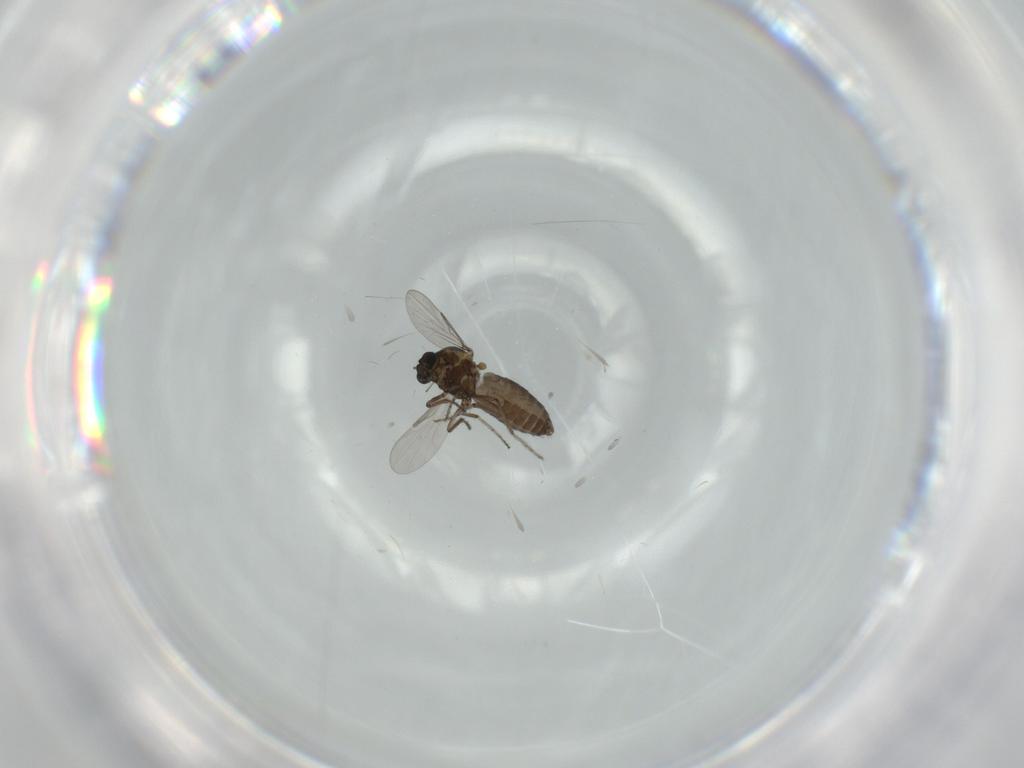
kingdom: Animalia
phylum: Arthropoda
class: Insecta
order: Diptera
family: Ceratopogonidae
